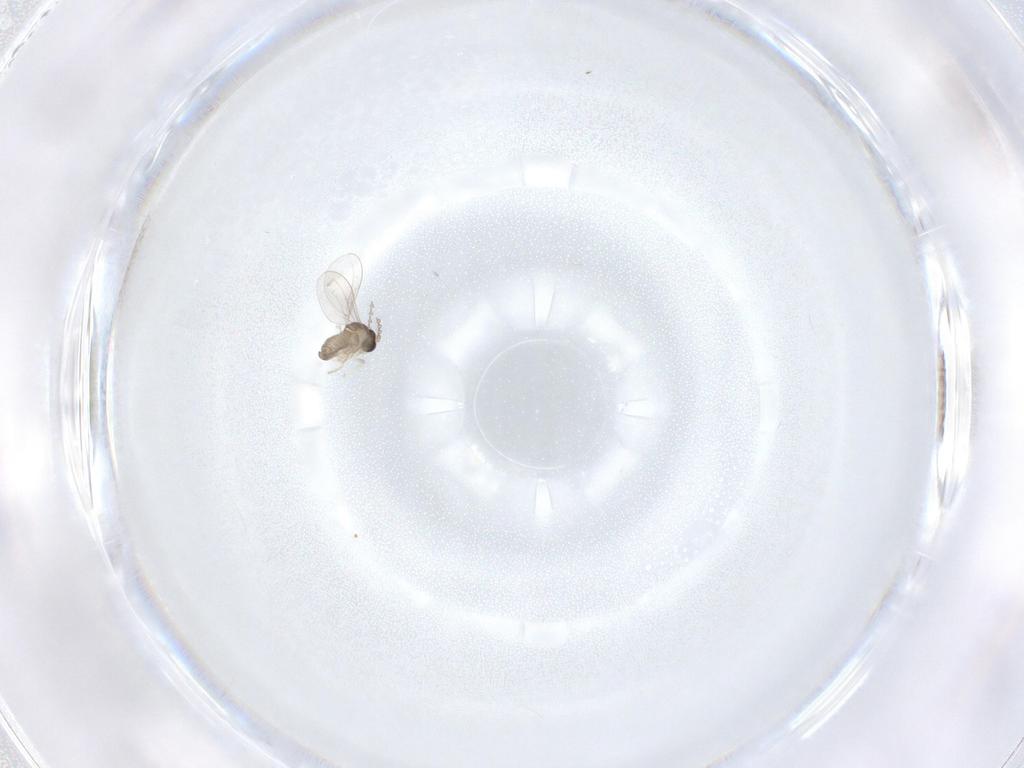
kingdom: Animalia
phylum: Arthropoda
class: Insecta
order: Diptera
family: Cecidomyiidae
